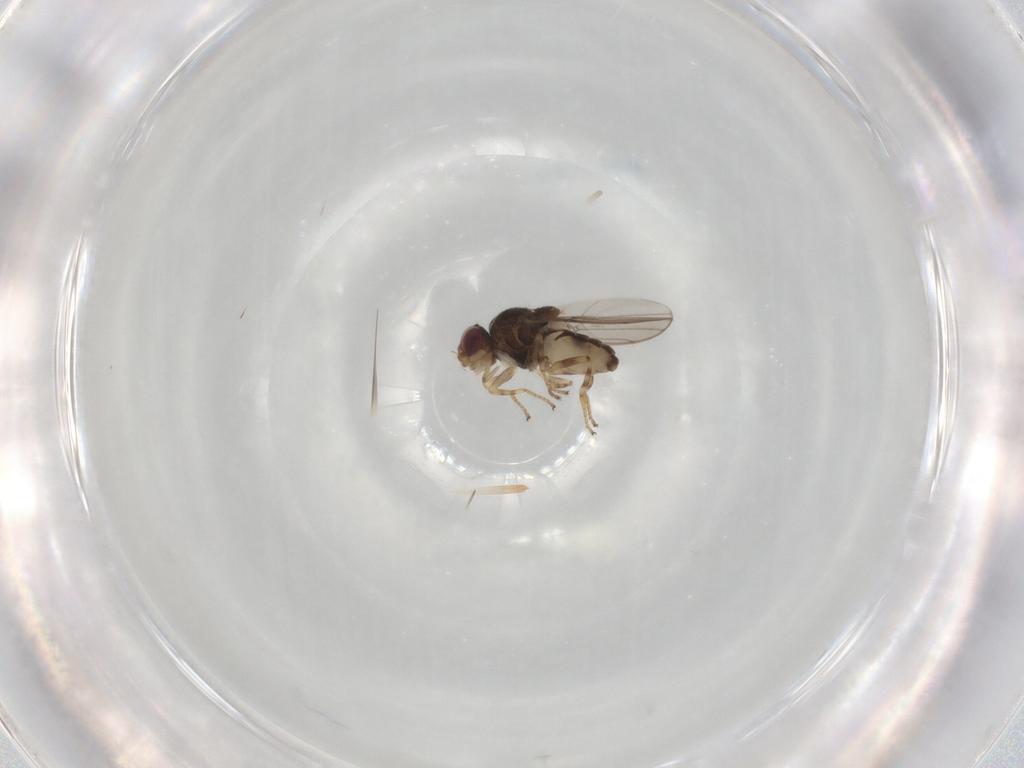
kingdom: Animalia
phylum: Arthropoda
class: Insecta
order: Diptera
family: Chloropidae
